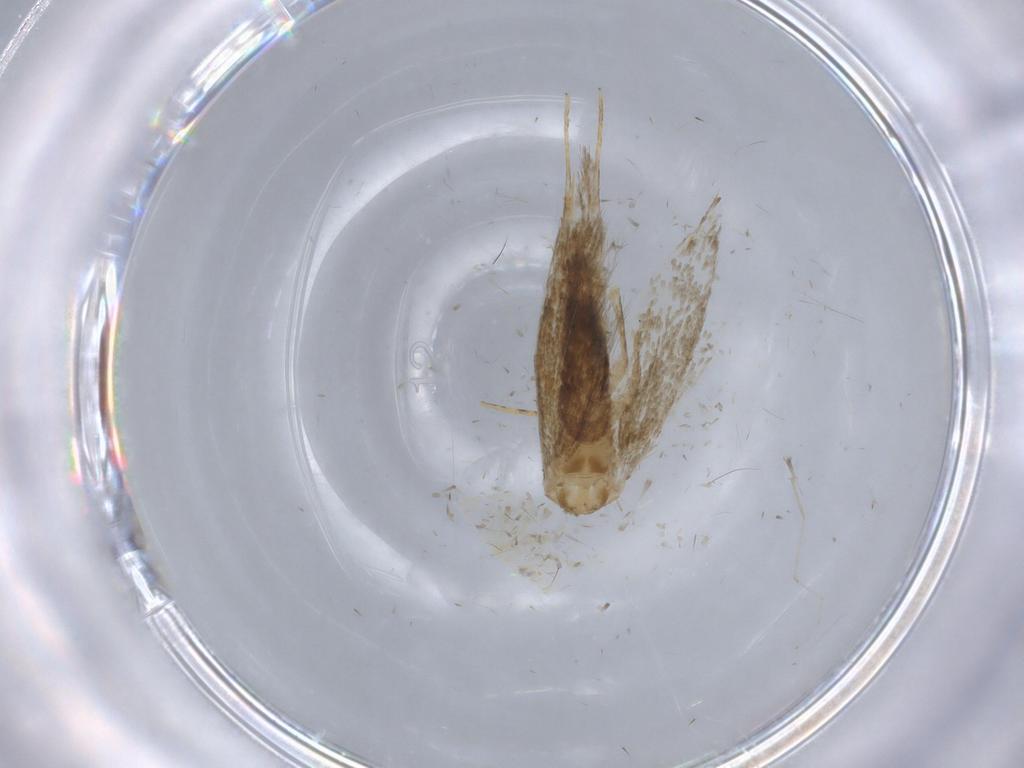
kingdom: Animalia
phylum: Arthropoda
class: Insecta
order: Lepidoptera
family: Tineidae
